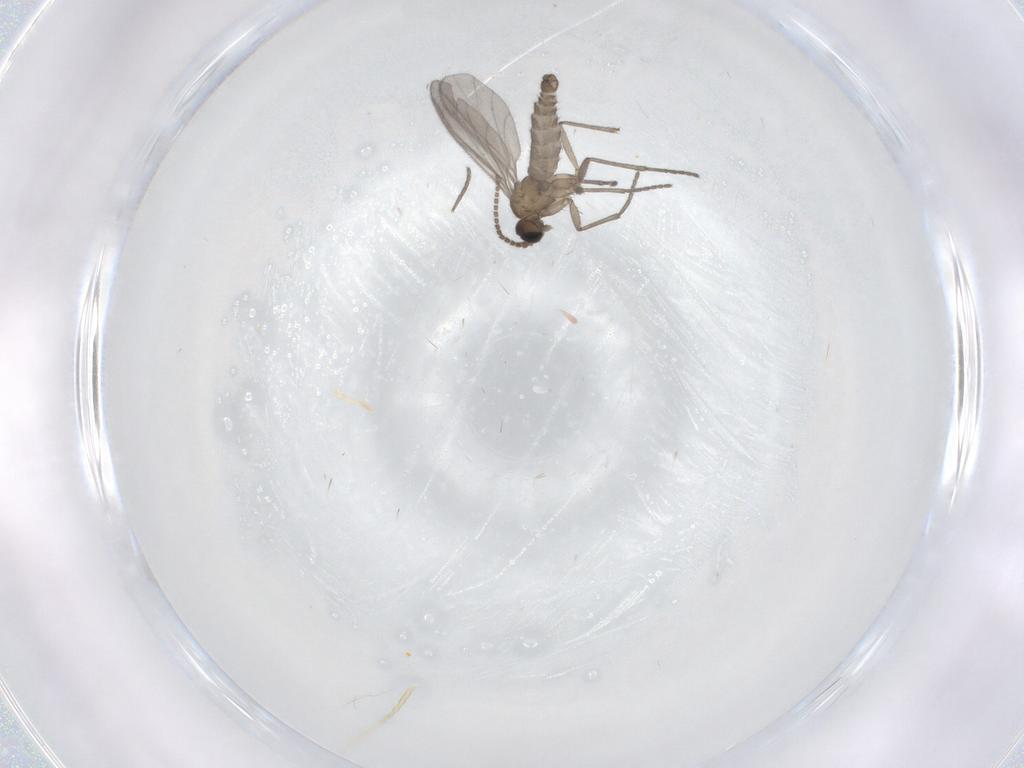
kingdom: Animalia
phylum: Arthropoda
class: Insecta
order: Diptera
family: Sciaridae
